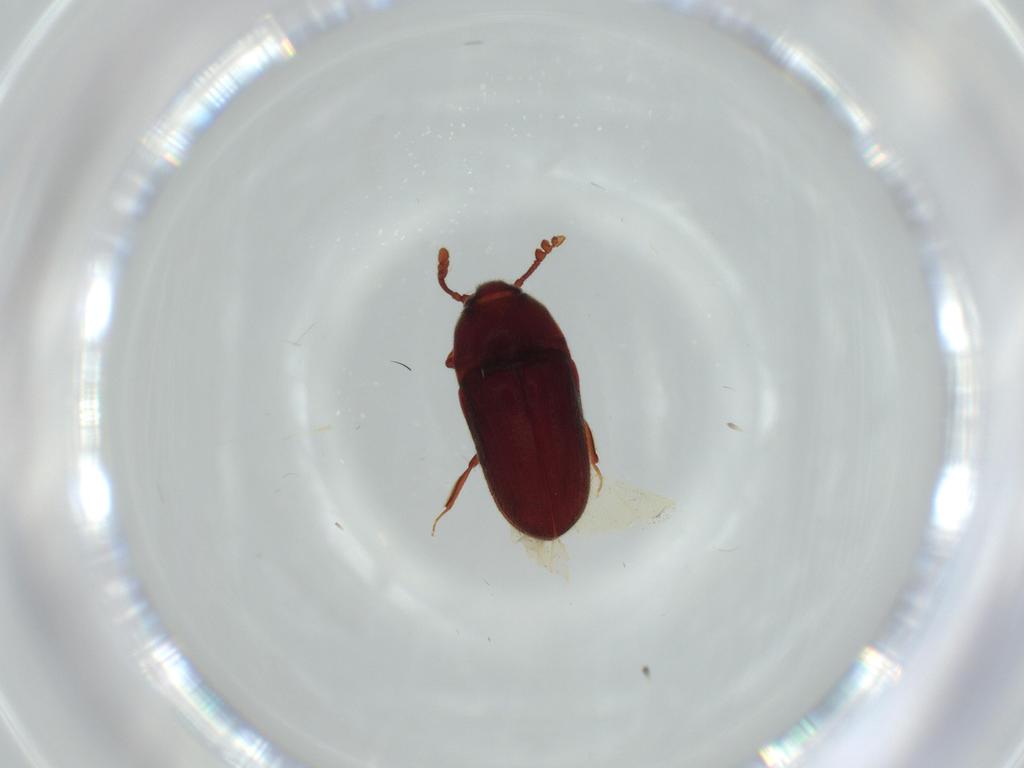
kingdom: Animalia
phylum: Arthropoda
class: Insecta
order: Coleoptera
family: Throscidae
